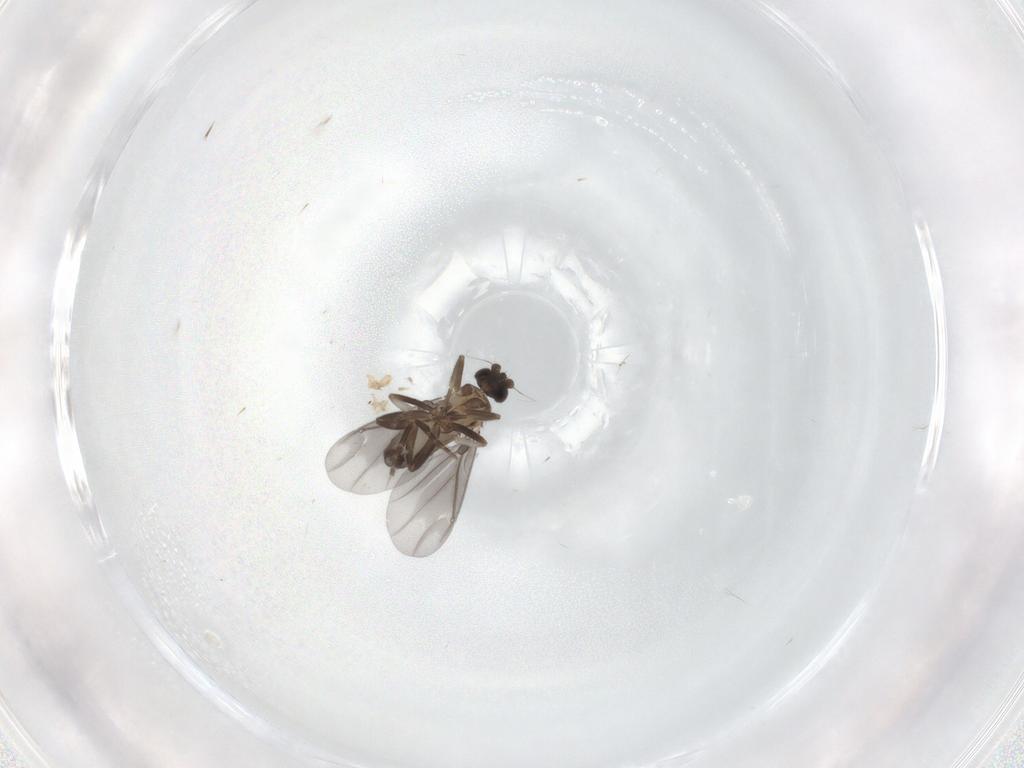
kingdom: Animalia
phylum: Arthropoda
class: Insecta
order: Diptera
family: Phoridae
